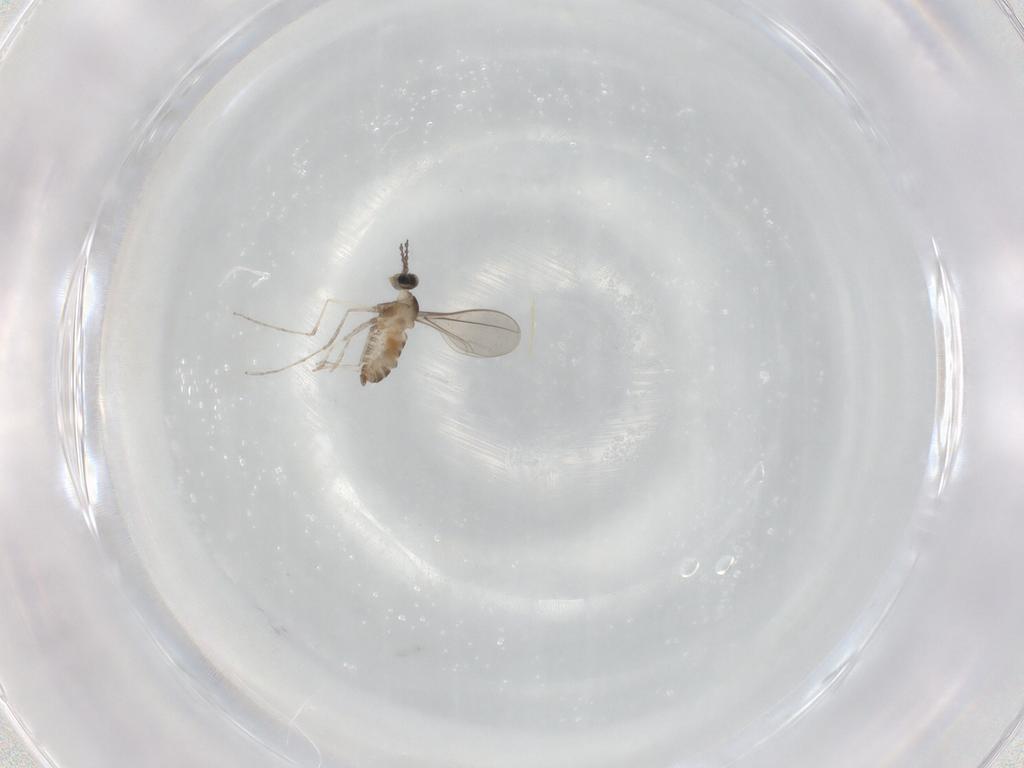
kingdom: Animalia
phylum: Arthropoda
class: Insecta
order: Diptera
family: Cecidomyiidae
